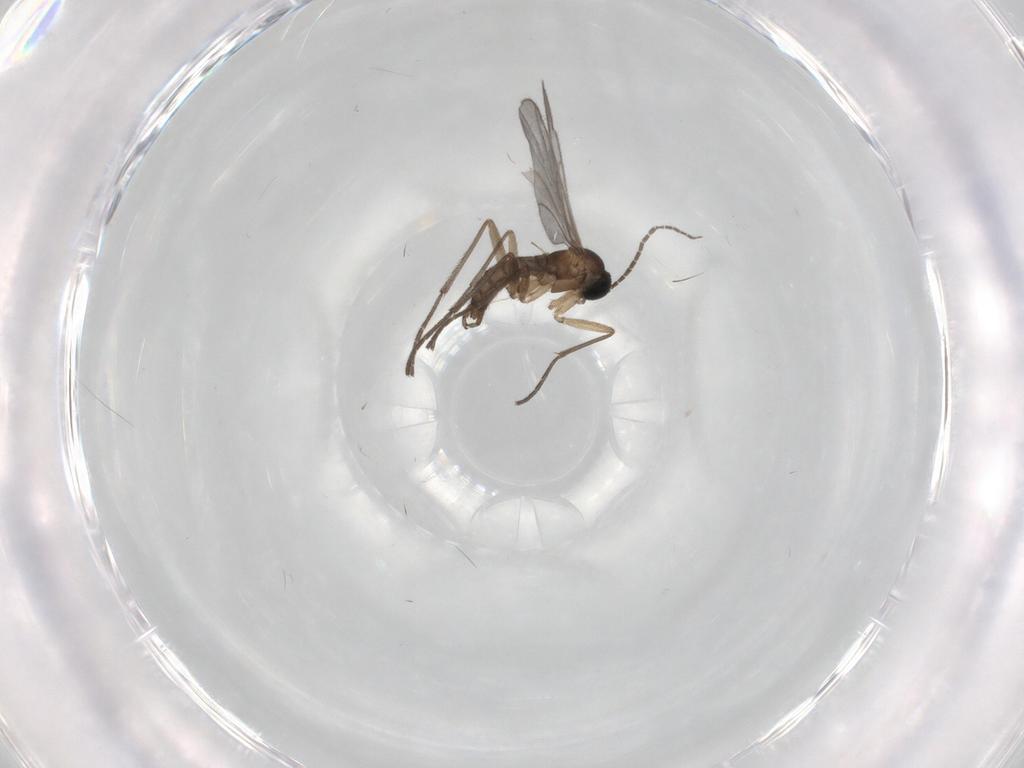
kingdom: Animalia
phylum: Arthropoda
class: Insecta
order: Diptera
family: Sciaridae
